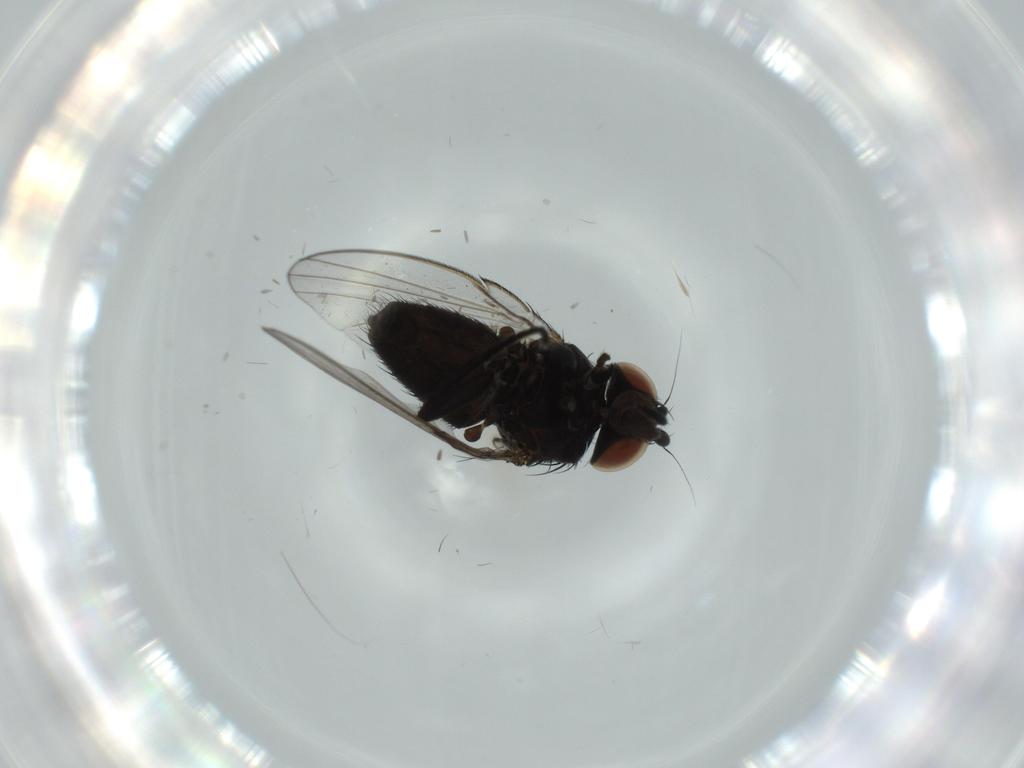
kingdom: Animalia
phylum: Arthropoda
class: Insecta
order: Diptera
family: Milichiidae
